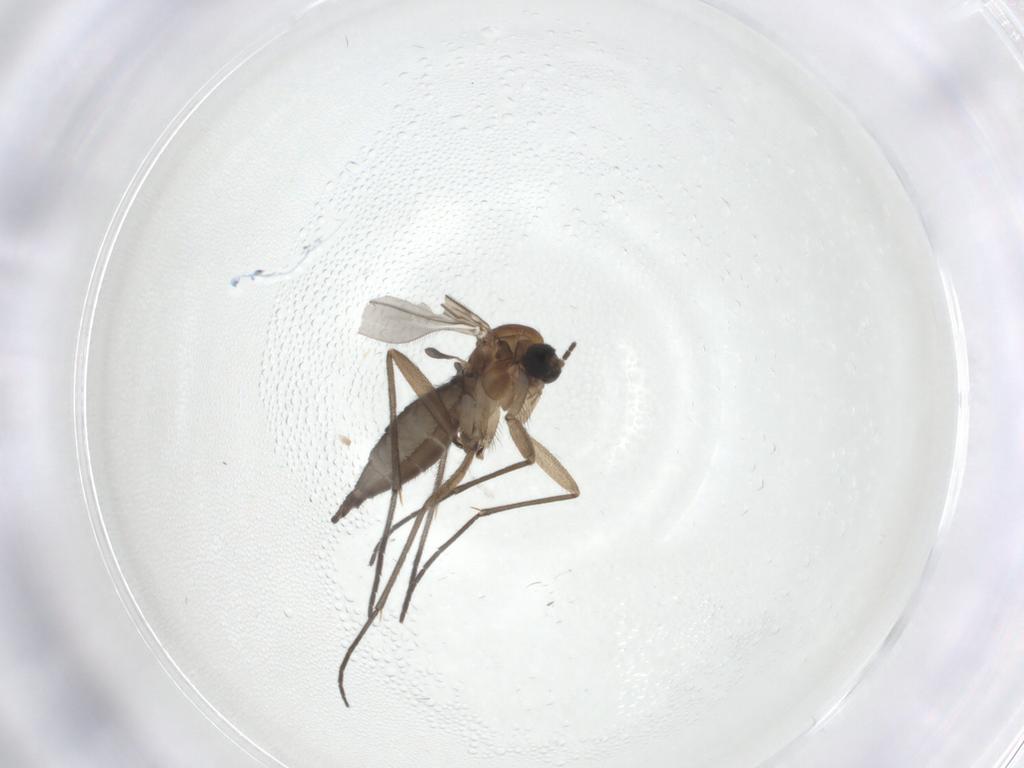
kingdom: Animalia
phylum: Arthropoda
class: Insecta
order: Diptera
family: Sciaridae
